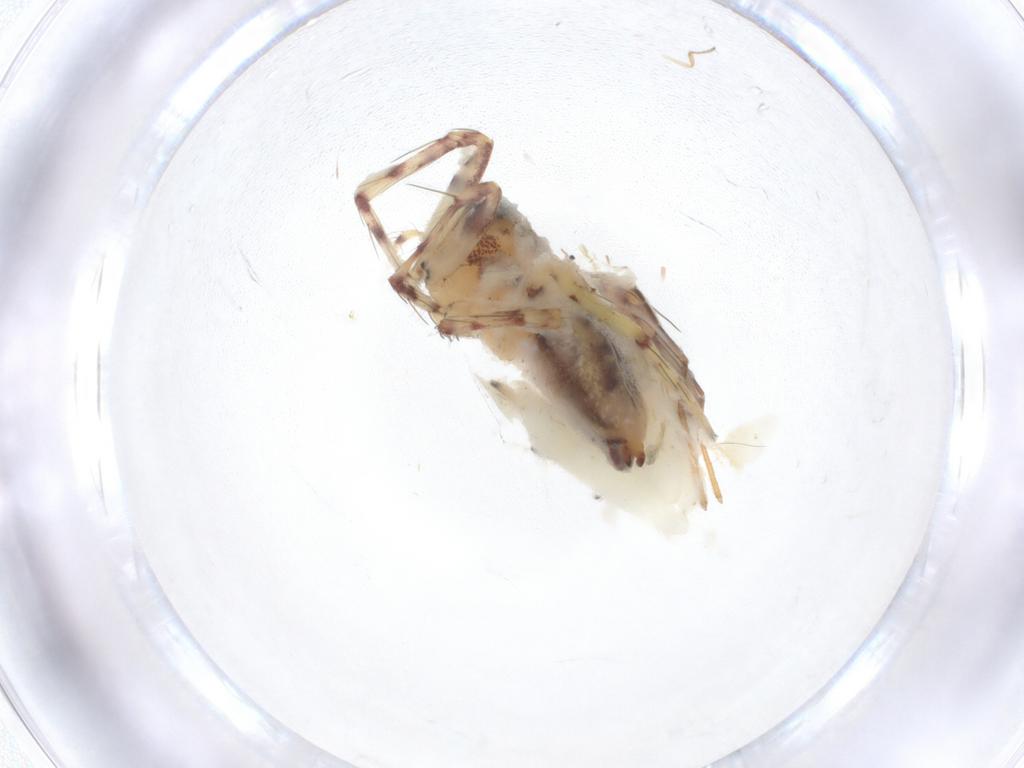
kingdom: Animalia
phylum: Arthropoda
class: Arachnida
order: Araneae
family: Oxyopidae
